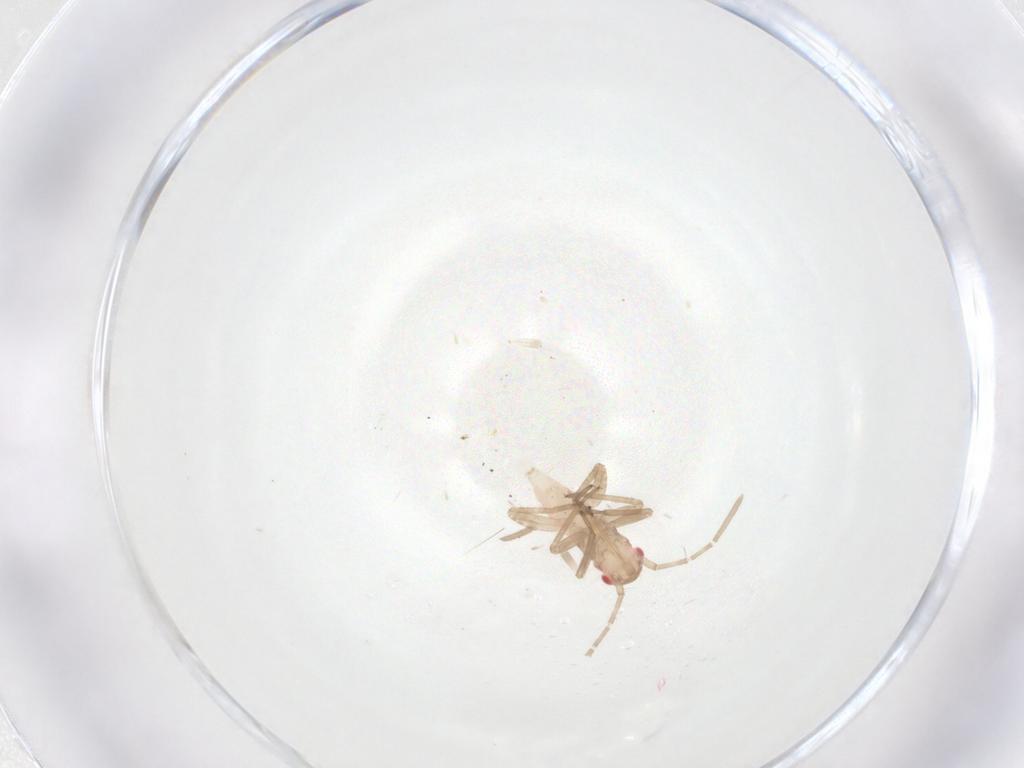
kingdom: Animalia
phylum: Arthropoda
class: Insecta
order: Hemiptera
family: Miridae
